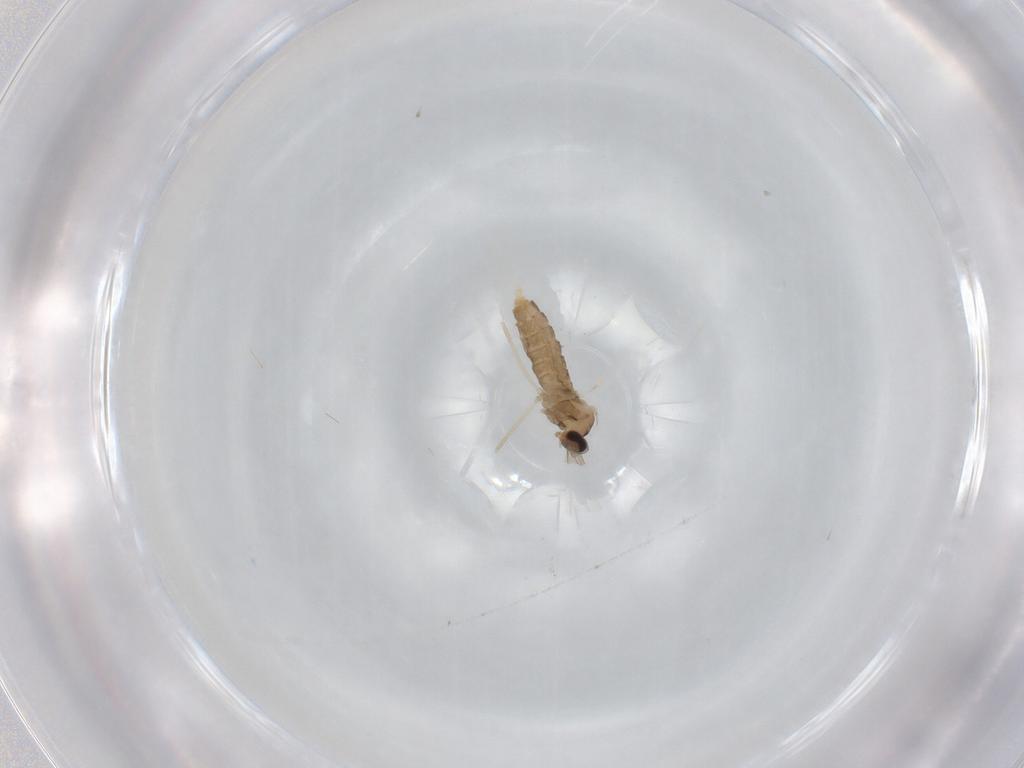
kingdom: Animalia
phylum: Arthropoda
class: Insecta
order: Diptera
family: Cecidomyiidae
